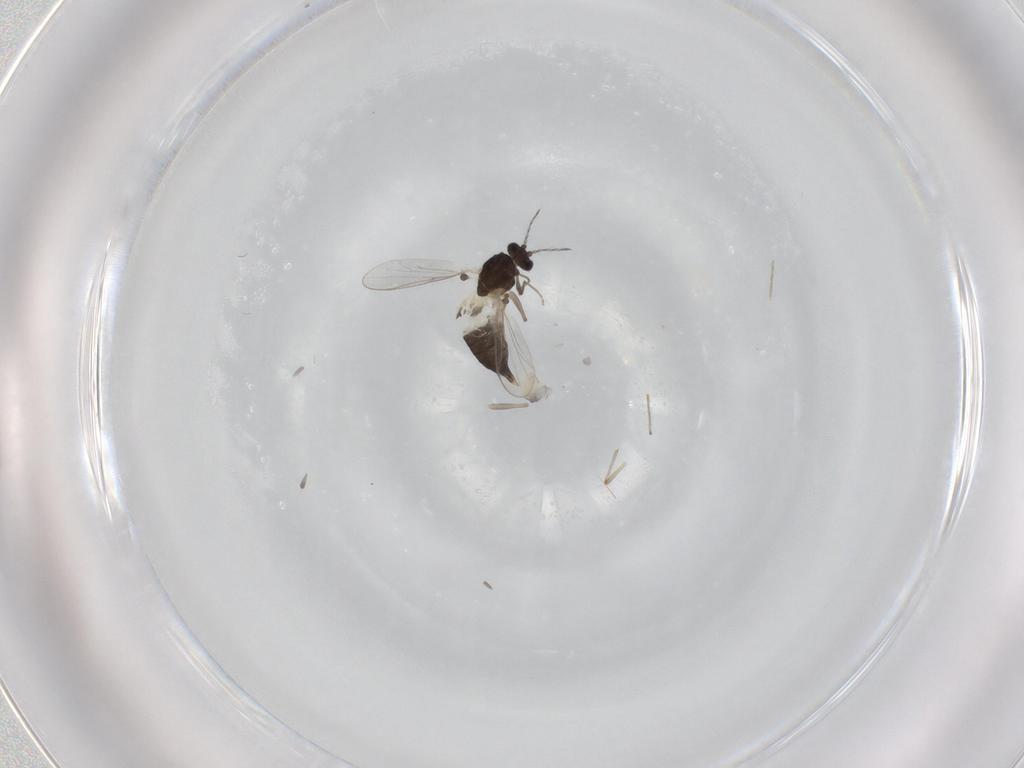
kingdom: Animalia
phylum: Arthropoda
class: Insecta
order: Diptera
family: Chironomidae
